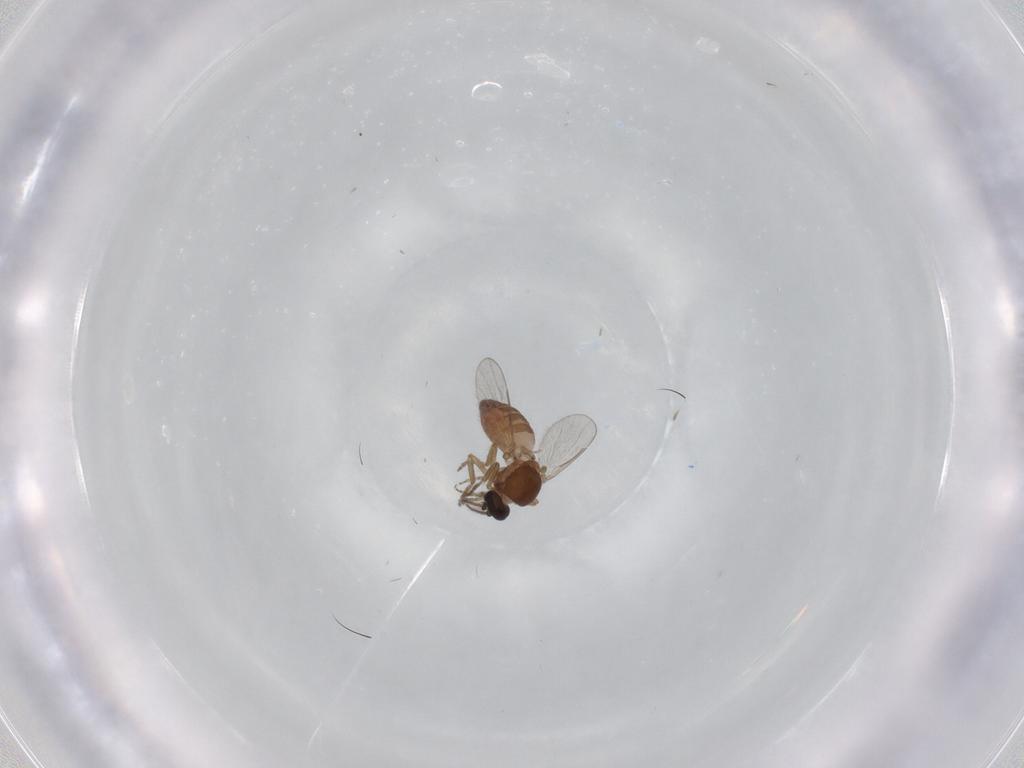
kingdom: Animalia
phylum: Arthropoda
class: Insecta
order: Diptera
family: Ceratopogonidae
